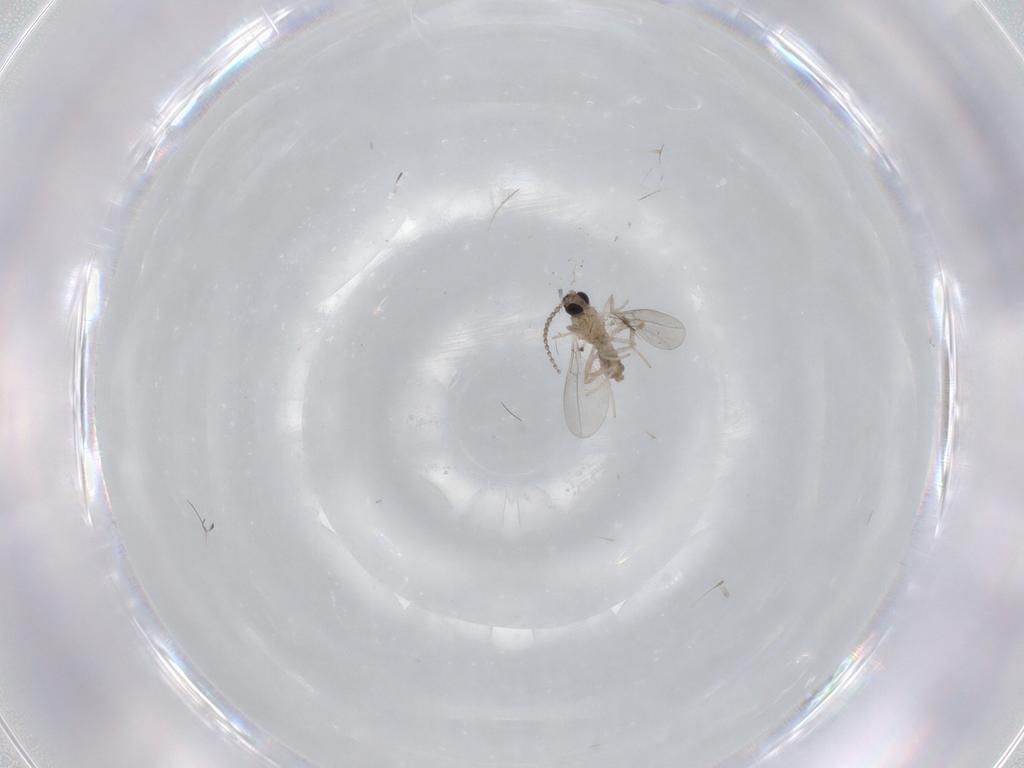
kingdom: Animalia
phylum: Arthropoda
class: Insecta
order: Diptera
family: Cecidomyiidae
